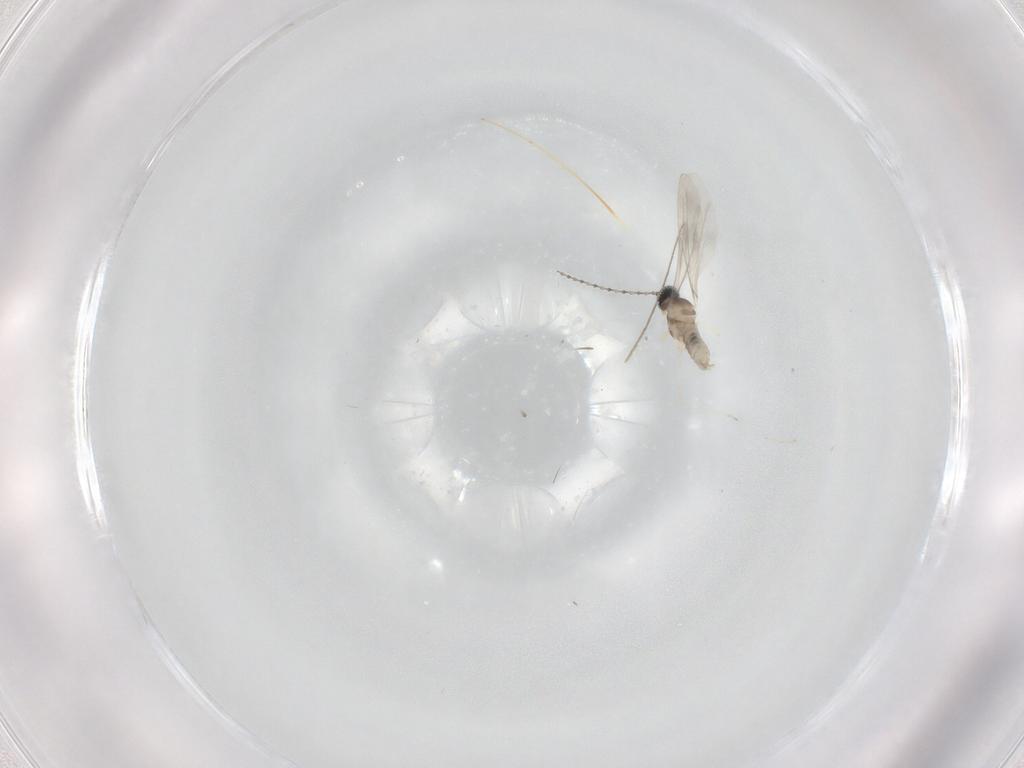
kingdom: Animalia
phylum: Arthropoda
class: Insecta
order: Diptera
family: Cecidomyiidae
